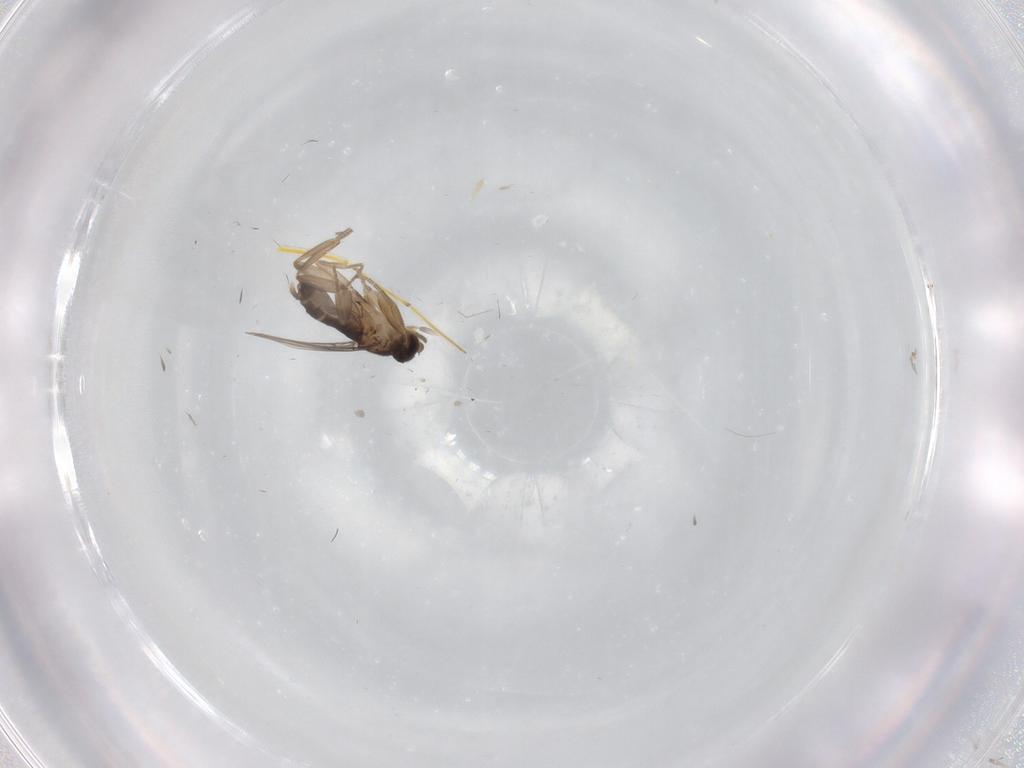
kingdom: Animalia
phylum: Arthropoda
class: Insecta
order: Diptera
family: Phoridae
